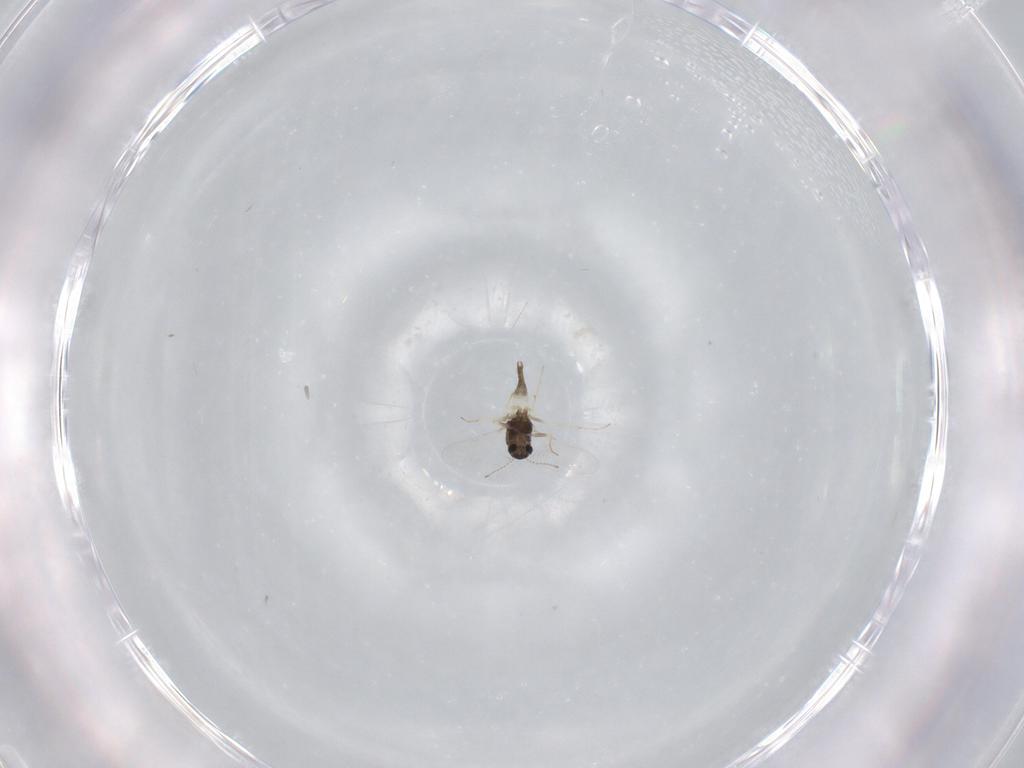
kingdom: Animalia
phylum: Arthropoda
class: Insecta
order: Diptera
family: Chironomidae
